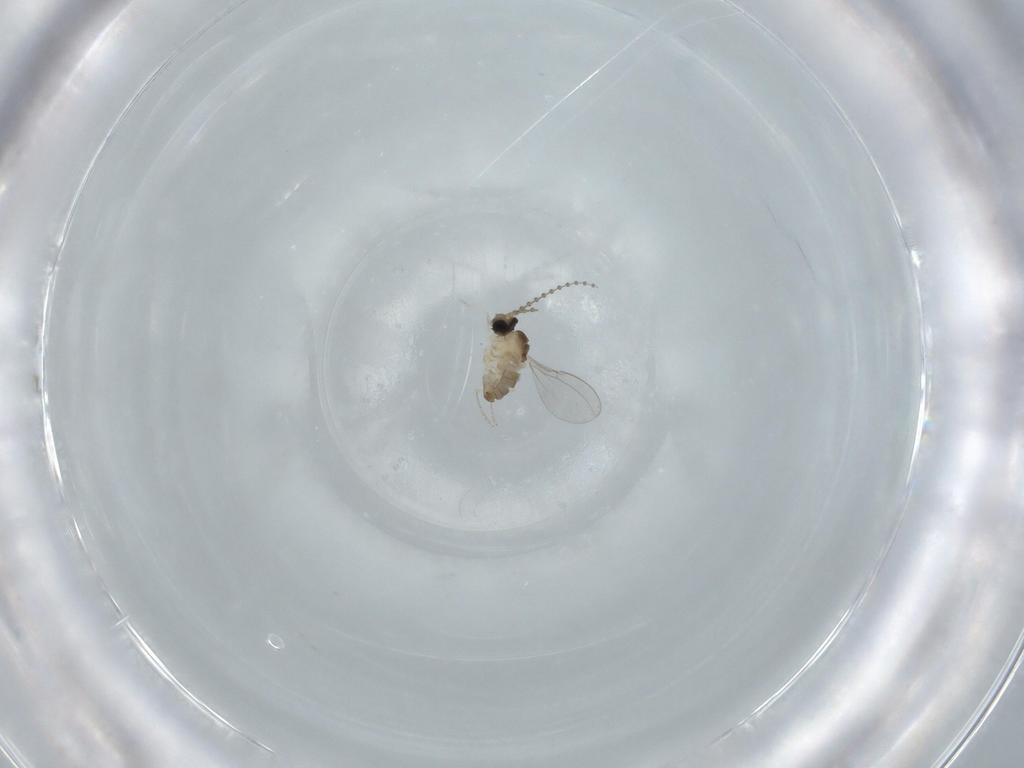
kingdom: Animalia
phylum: Arthropoda
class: Insecta
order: Diptera
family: Cecidomyiidae
